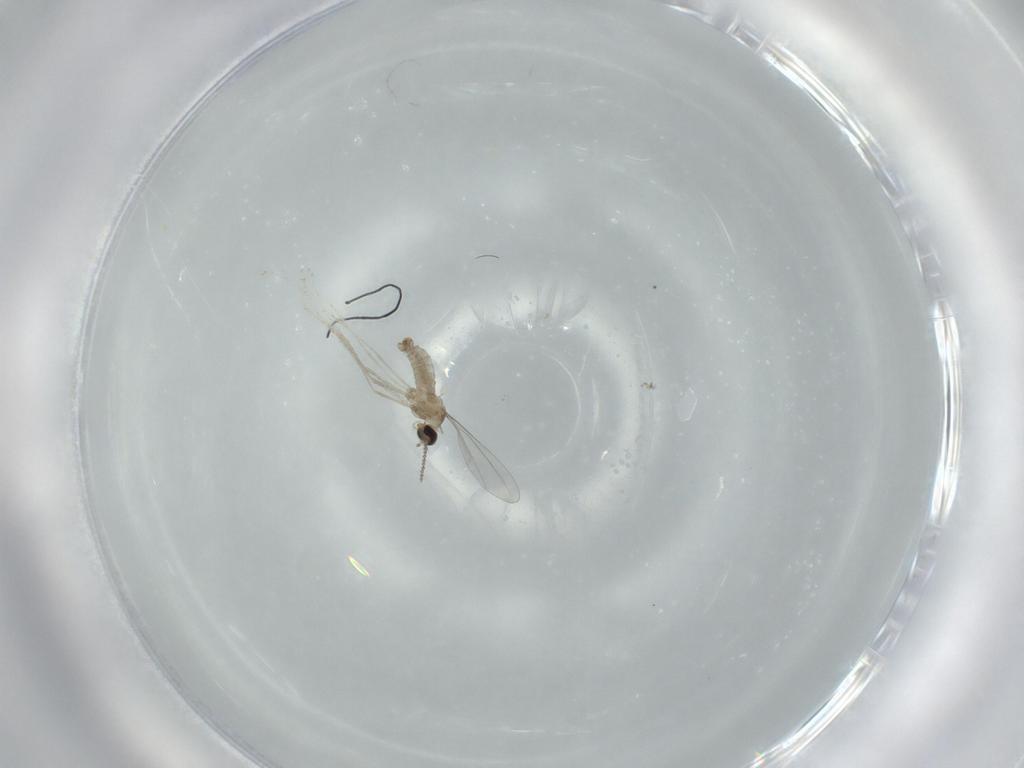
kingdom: Animalia
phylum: Arthropoda
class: Insecta
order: Diptera
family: Cecidomyiidae
